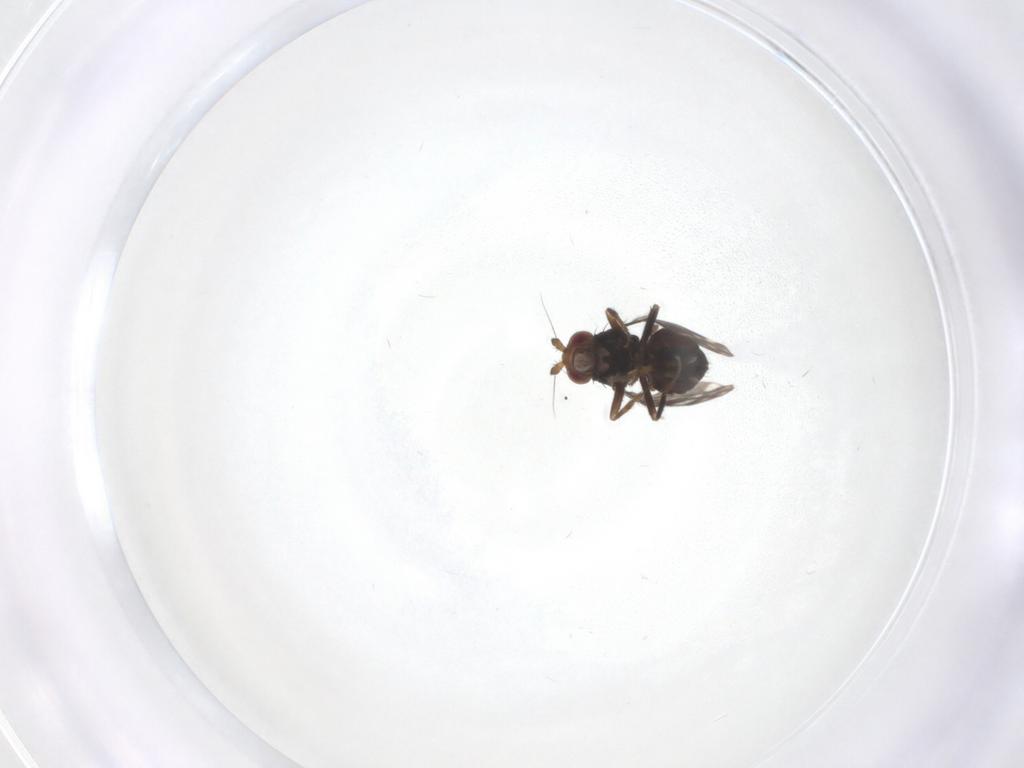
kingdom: Animalia
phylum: Arthropoda
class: Insecta
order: Diptera
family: Sphaeroceridae
